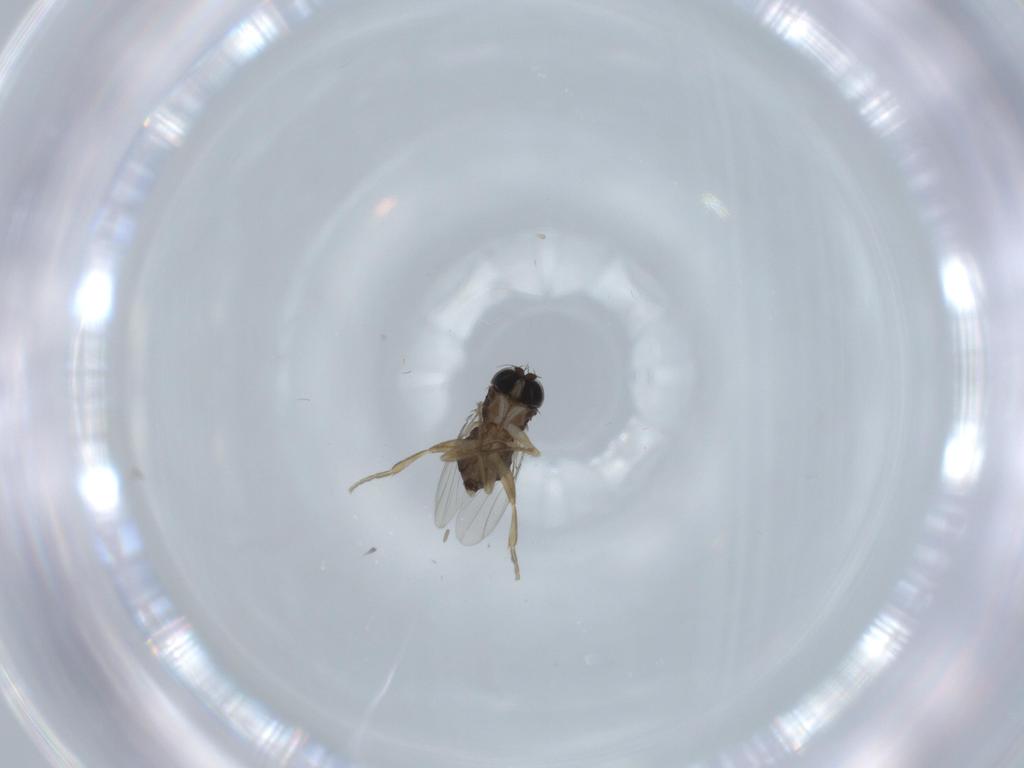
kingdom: Animalia
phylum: Arthropoda
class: Insecta
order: Diptera
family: Phoridae
